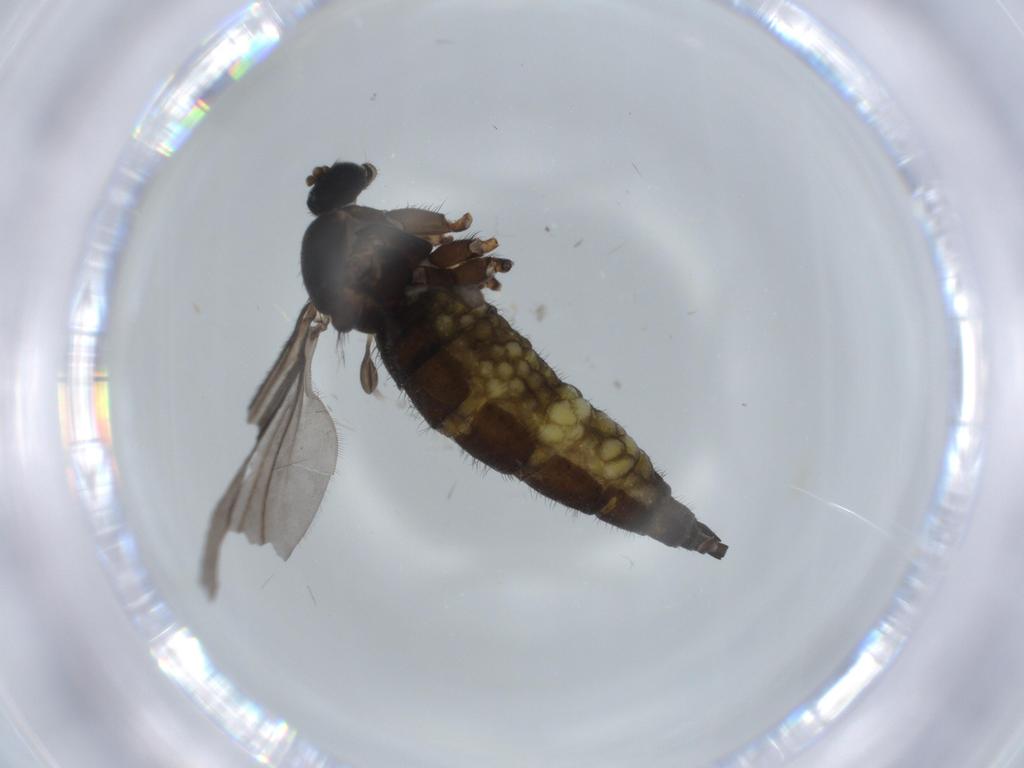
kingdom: Animalia
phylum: Arthropoda
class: Insecta
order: Diptera
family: Sciaridae
